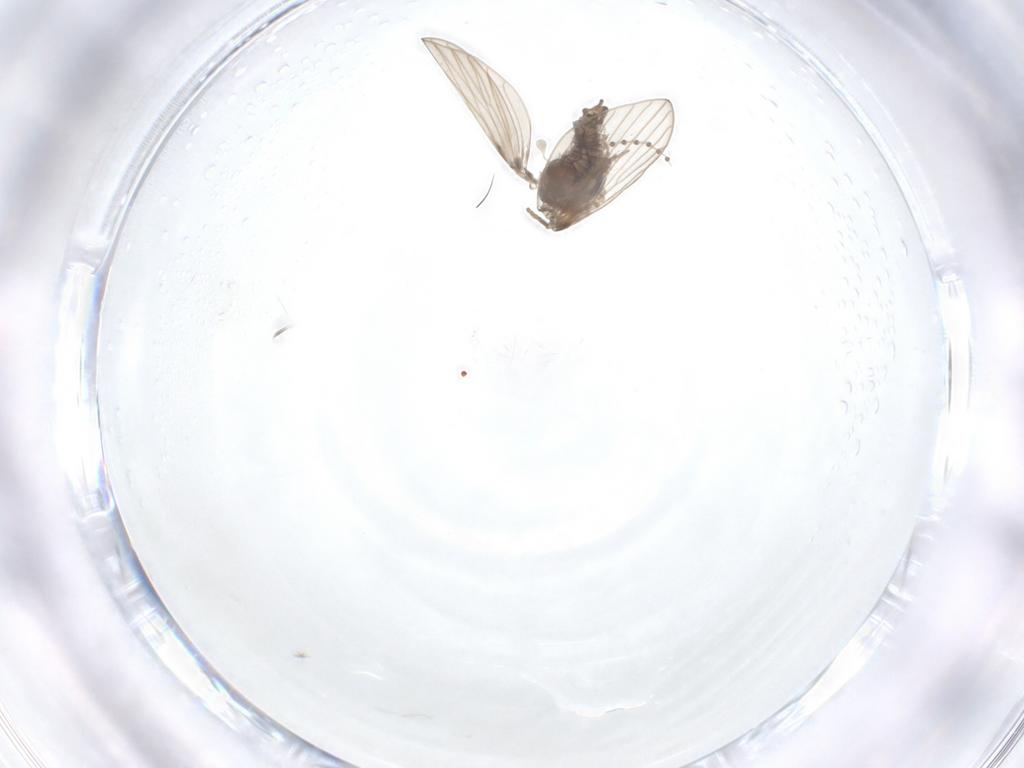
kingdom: Animalia
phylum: Arthropoda
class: Insecta
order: Diptera
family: Psychodidae
